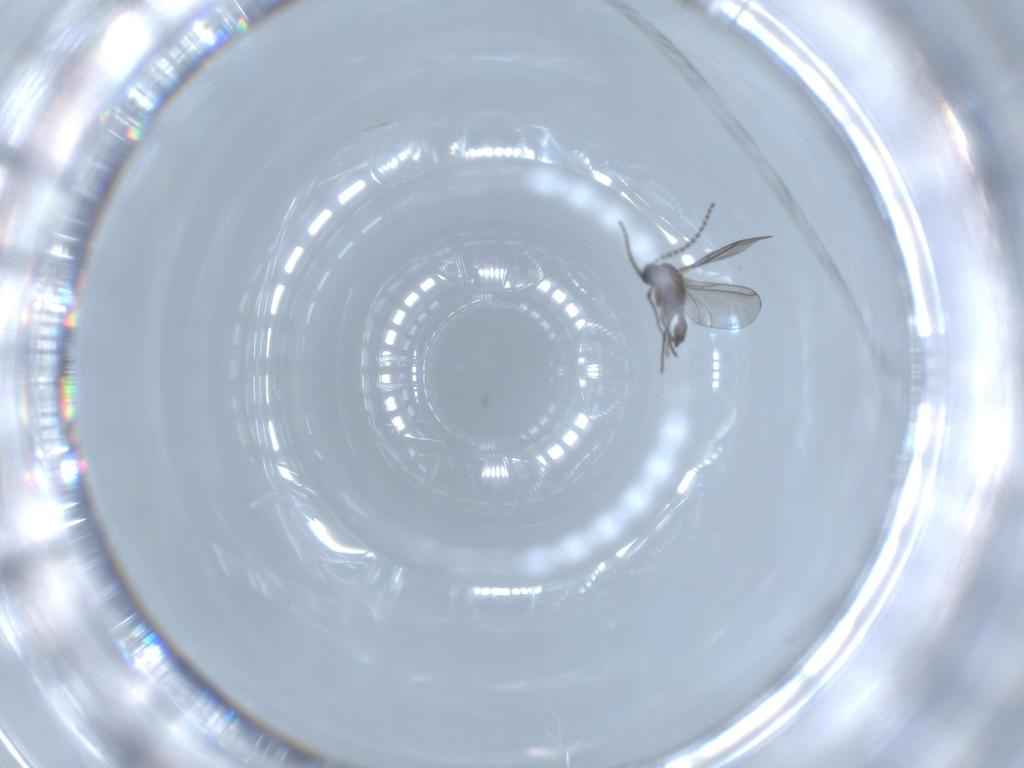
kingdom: Animalia
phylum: Arthropoda
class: Insecta
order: Diptera
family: Sciaridae
